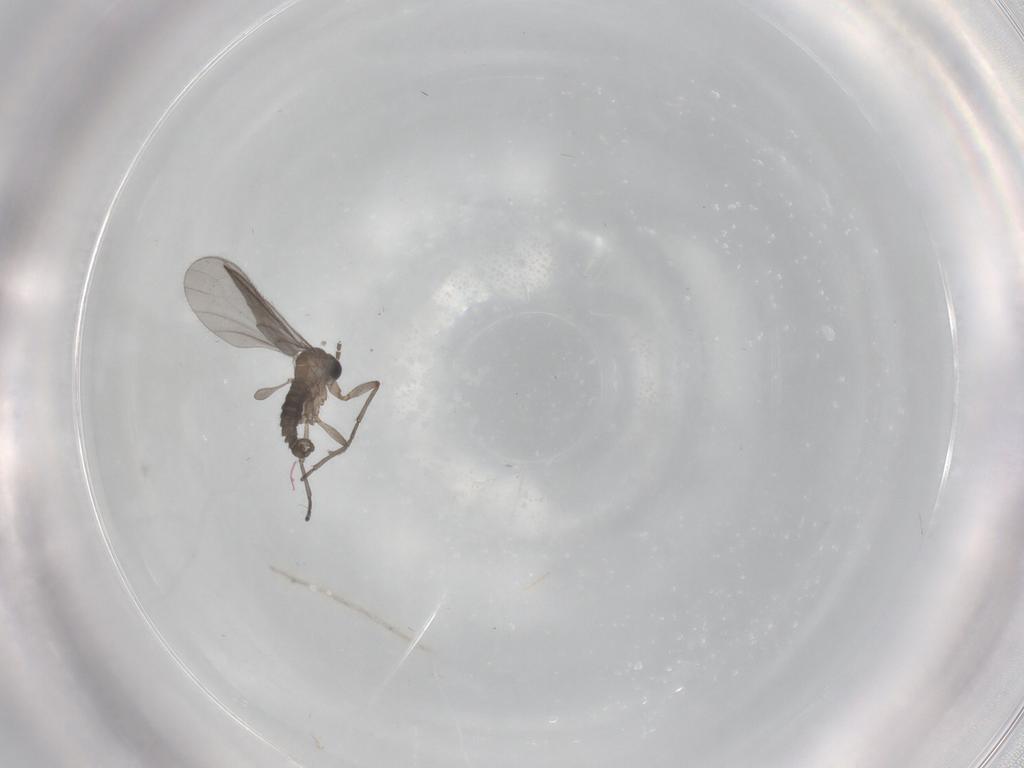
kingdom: Animalia
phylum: Arthropoda
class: Insecta
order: Diptera
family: Sciaridae
